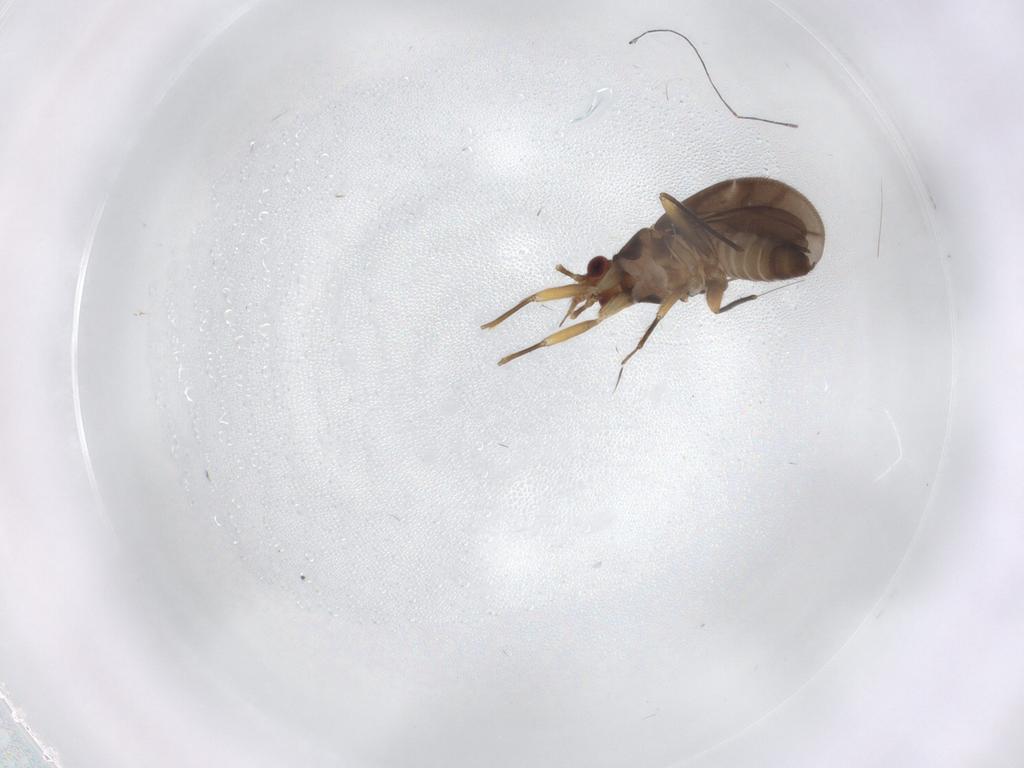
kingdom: Animalia
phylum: Arthropoda
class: Insecta
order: Hemiptera
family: Ceratocombidae
